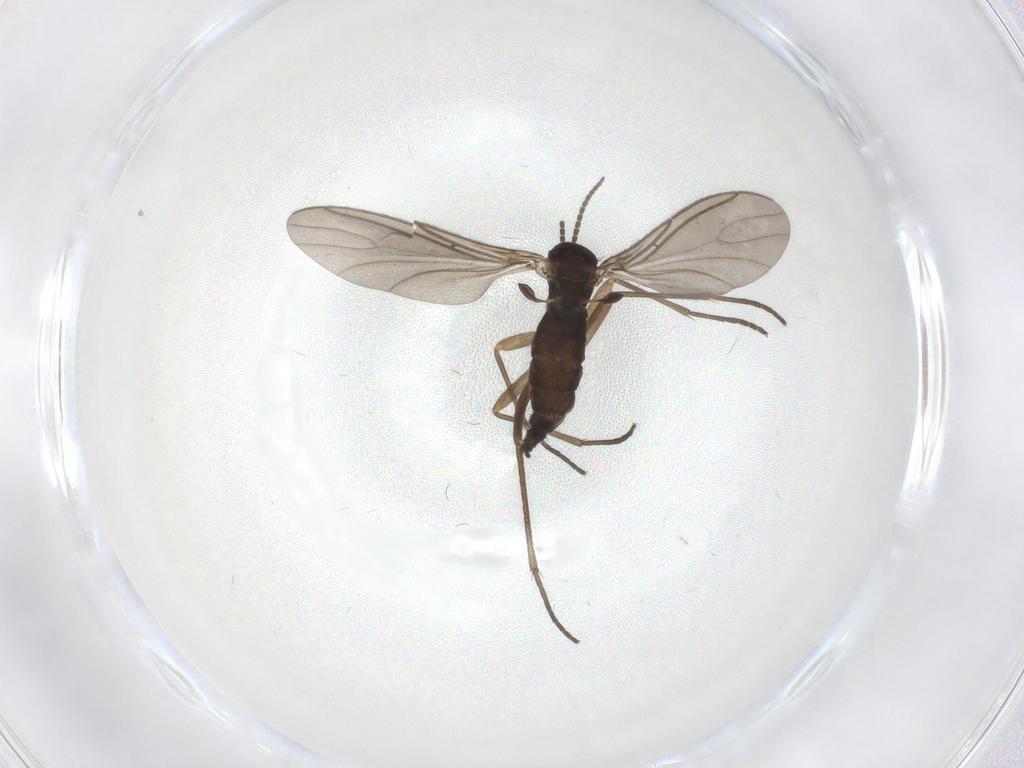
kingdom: Animalia
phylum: Arthropoda
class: Insecta
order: Diptera
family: Sciaridae
